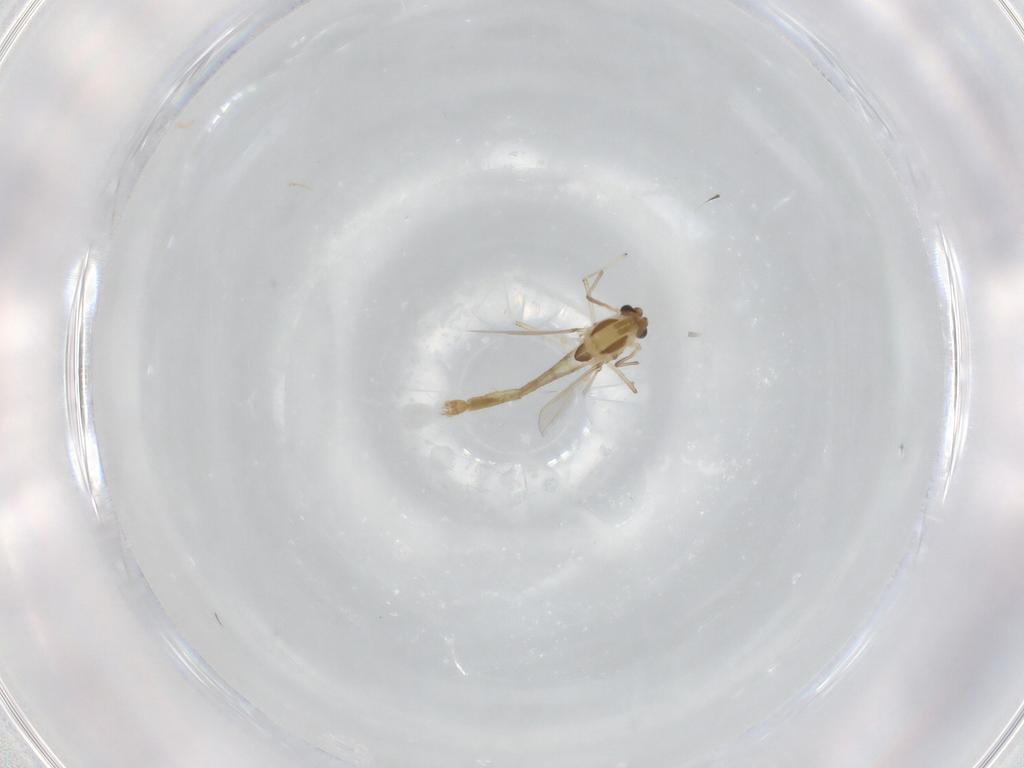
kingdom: Animalia
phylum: Arthropoda
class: Insecta
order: Diptera
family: Chironomidae
